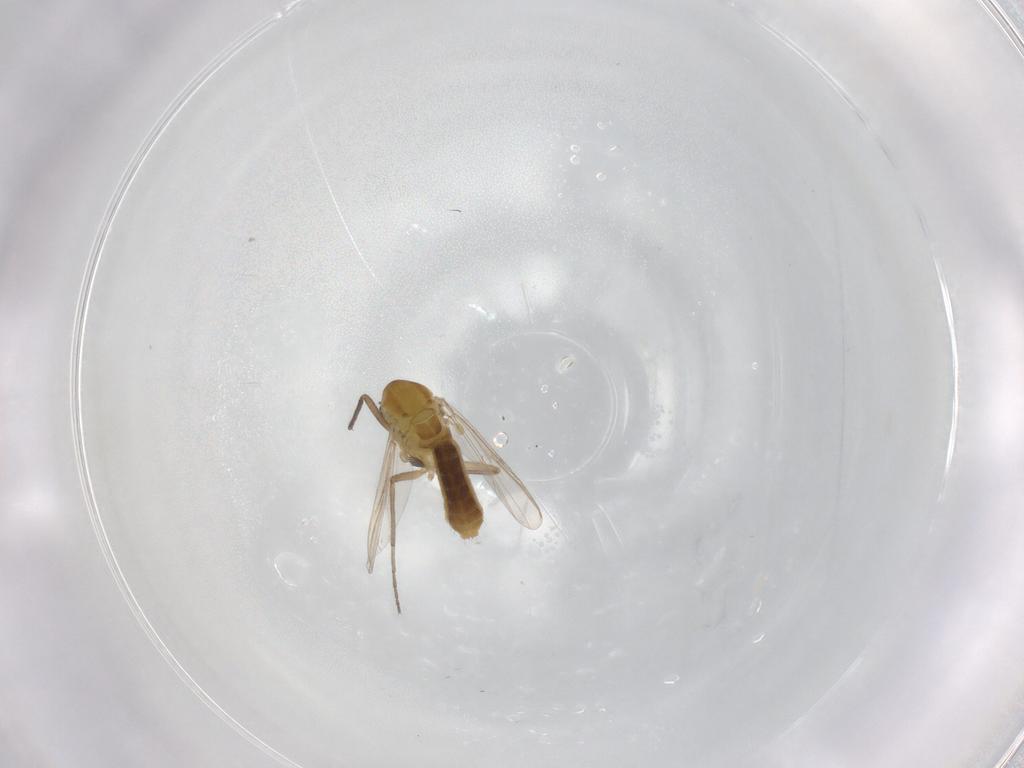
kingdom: Animalia
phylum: Arthropoda
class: Insecta
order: Diptera
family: Chironomidae
